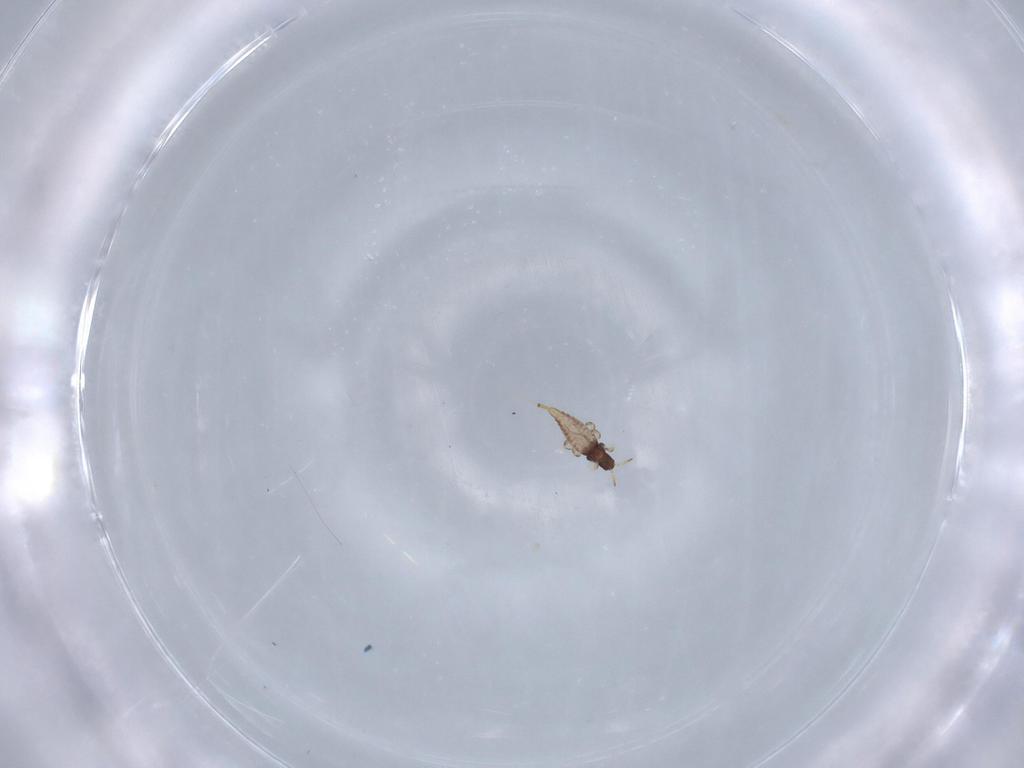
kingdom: Animalia
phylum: Arthropoda
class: Insecta
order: Thysanoptera
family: Phlaeothripidae
